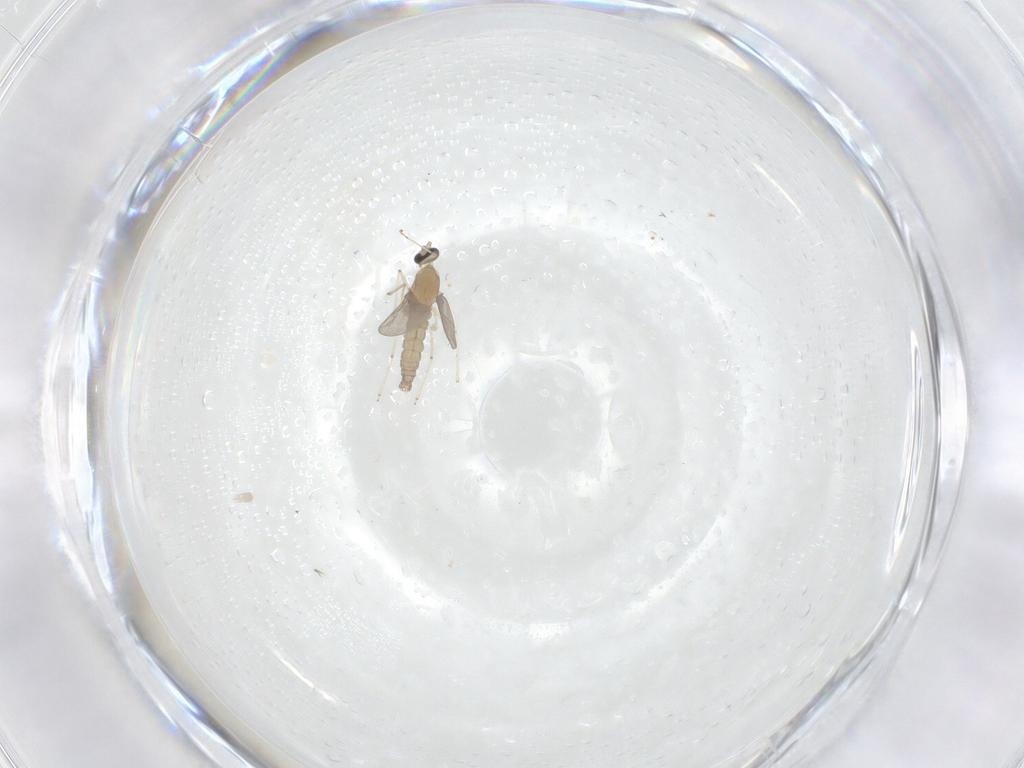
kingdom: Animalia
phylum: Arthropoda
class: Insecta
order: Diptera
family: Cecidomyiidae
